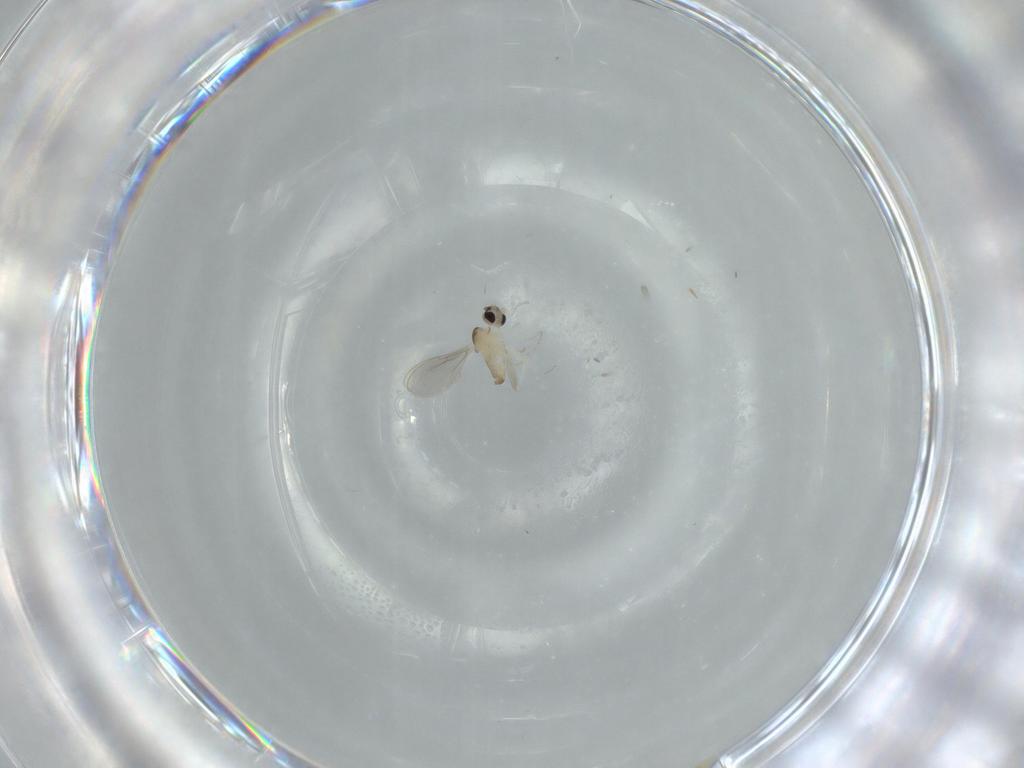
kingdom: Animalia
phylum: Arthropoda
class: Insecta
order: Diptera
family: Cecidomyiidae
